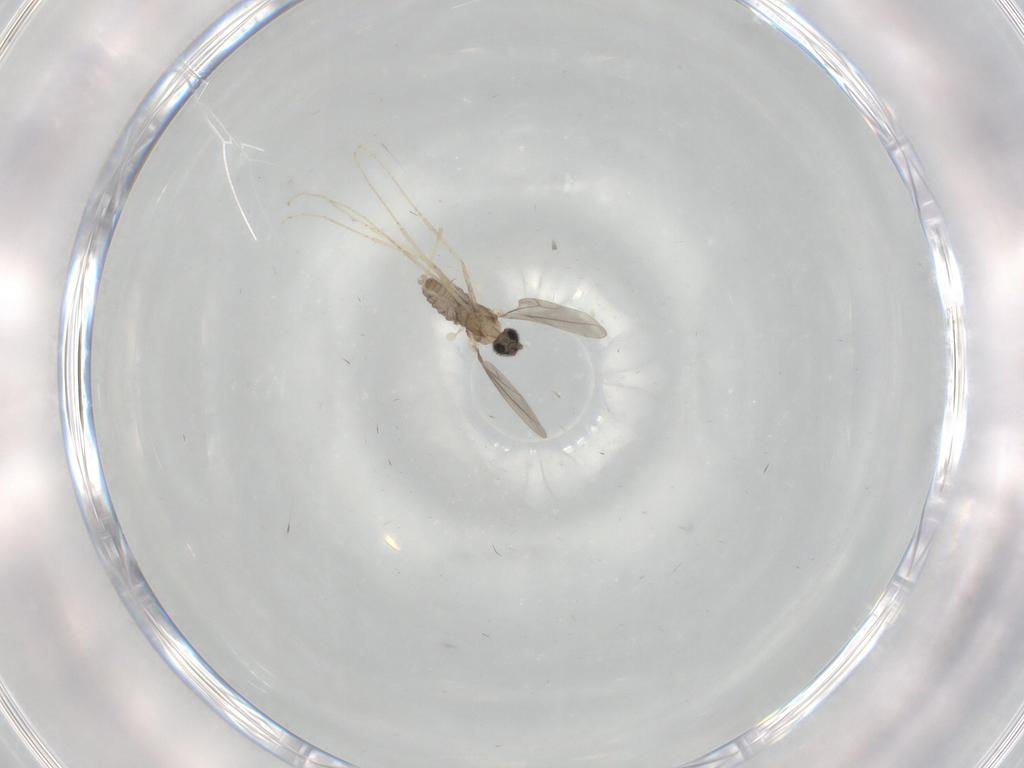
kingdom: Animalia
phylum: Arthropoda
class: Insecta
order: Diptera
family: Cecidomyiidae
